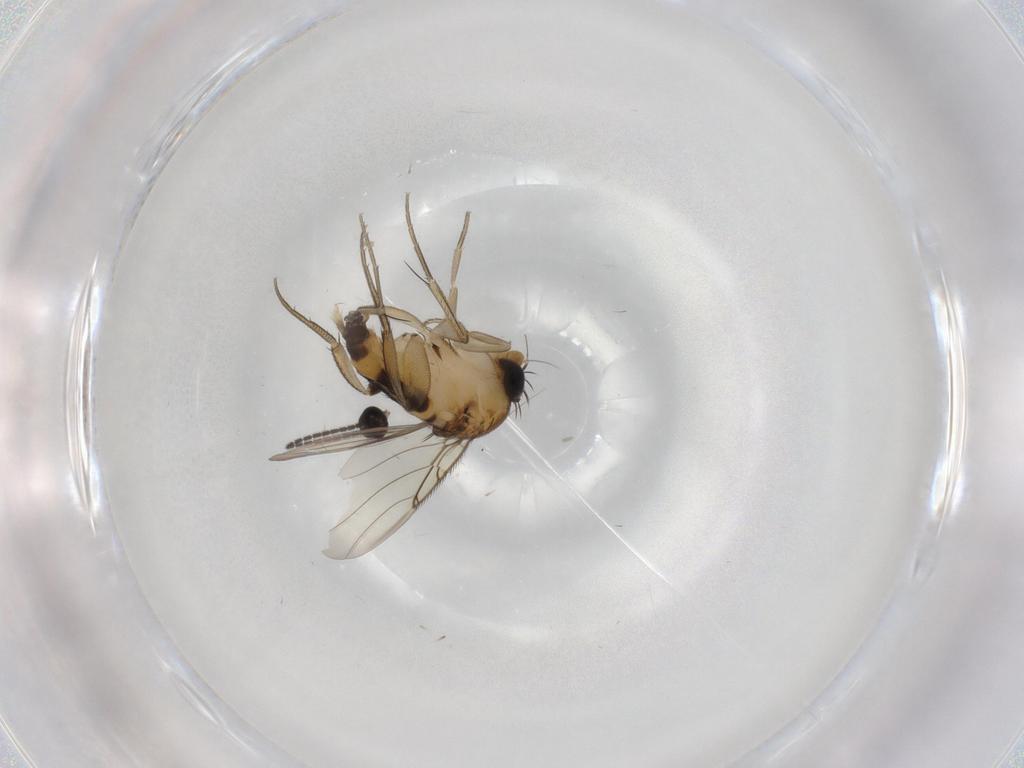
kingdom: Animalia
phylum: Arthropoda
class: Insecta
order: Diptera
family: Phoridae
